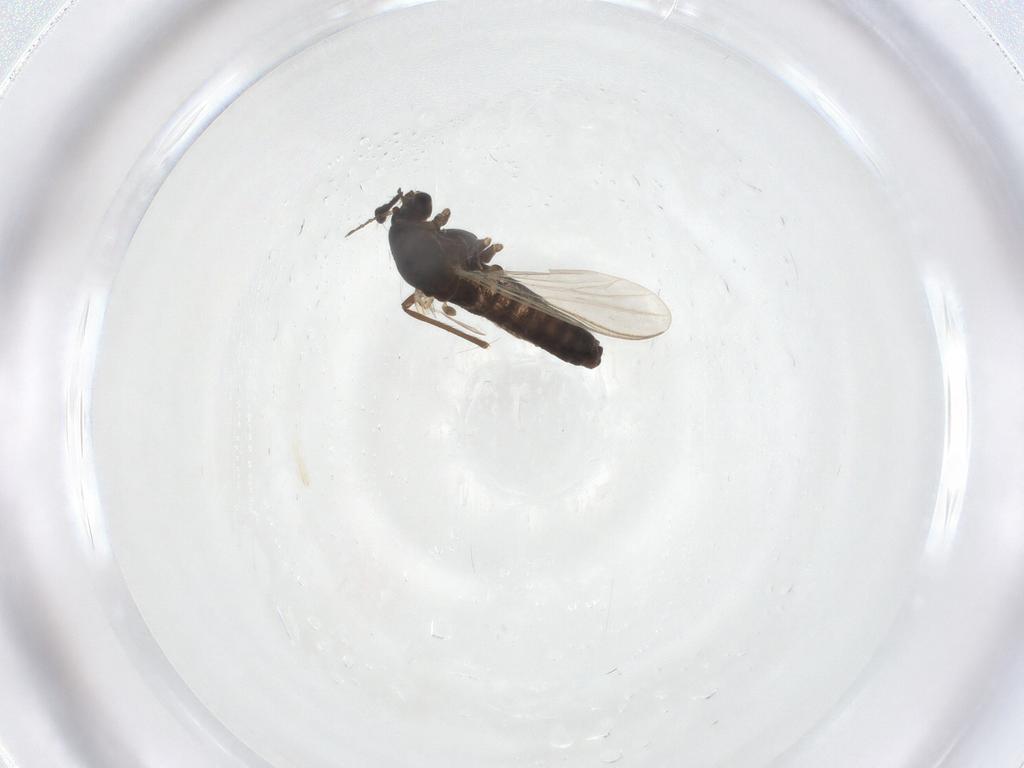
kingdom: Animalia
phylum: Arthropoda
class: Insecta
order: Diptera
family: Chironomidae
